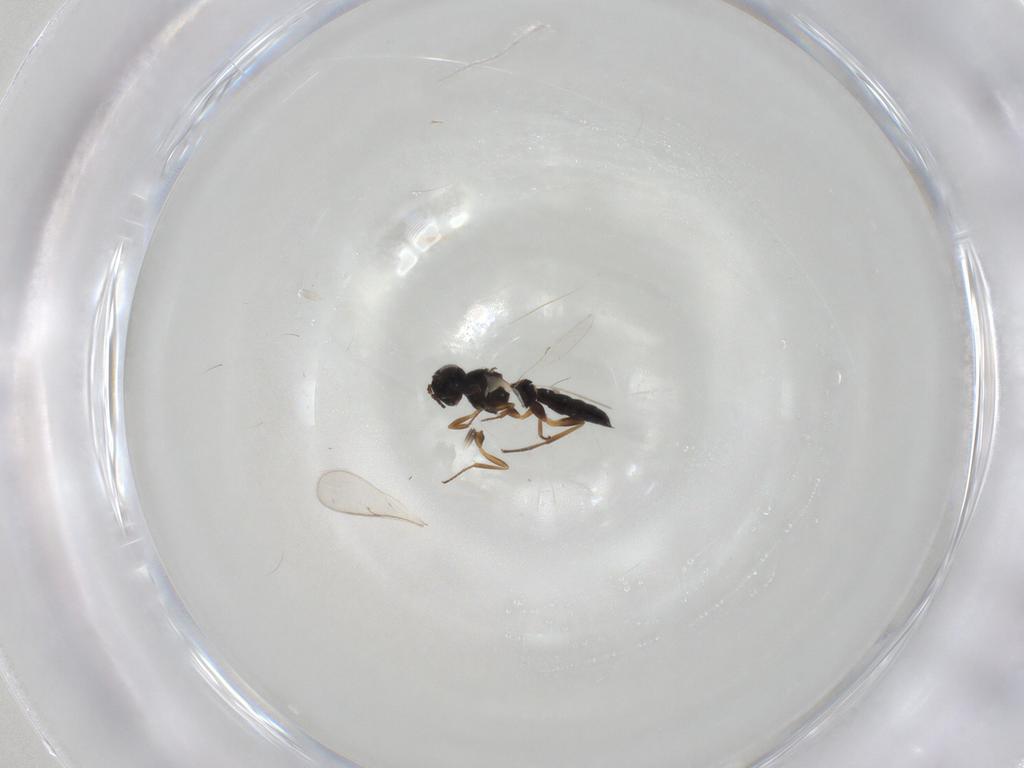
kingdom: Animalia
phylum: Arthropoda
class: Insecta
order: Hymenoptera
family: Scelionidae
